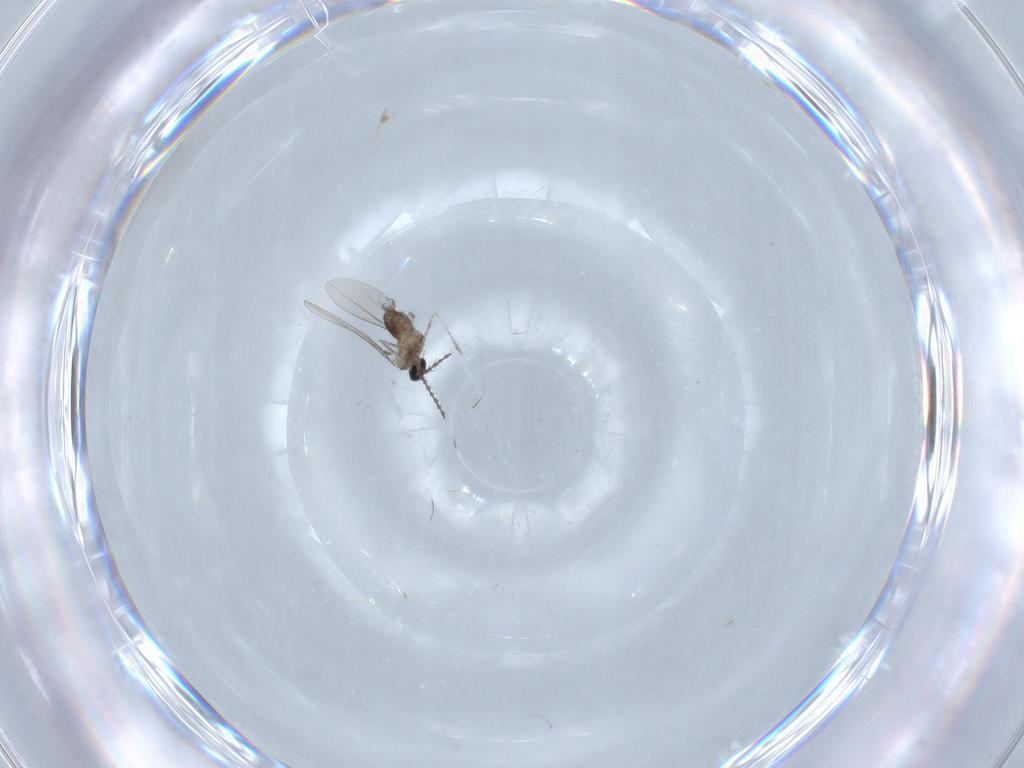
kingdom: Animalia
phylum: Arthropoda
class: Insecta
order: Diptera
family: Cecidomyiidae
